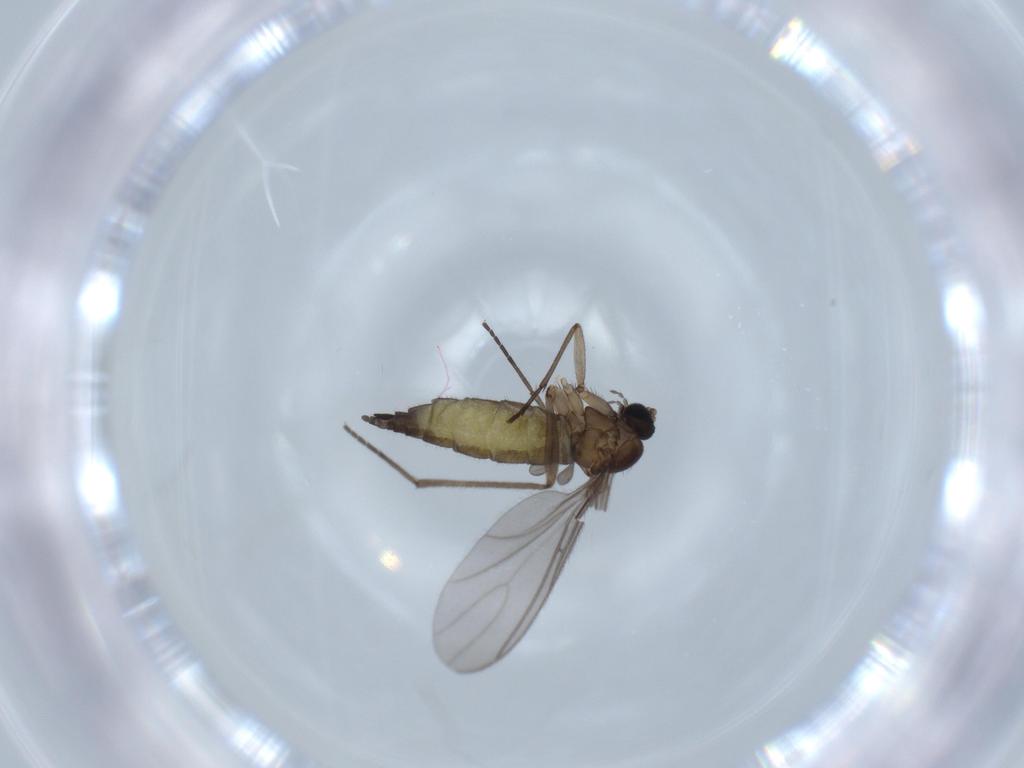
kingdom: Animalia
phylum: Arthropoda
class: Insecta
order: Diptera
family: Sciaridae
